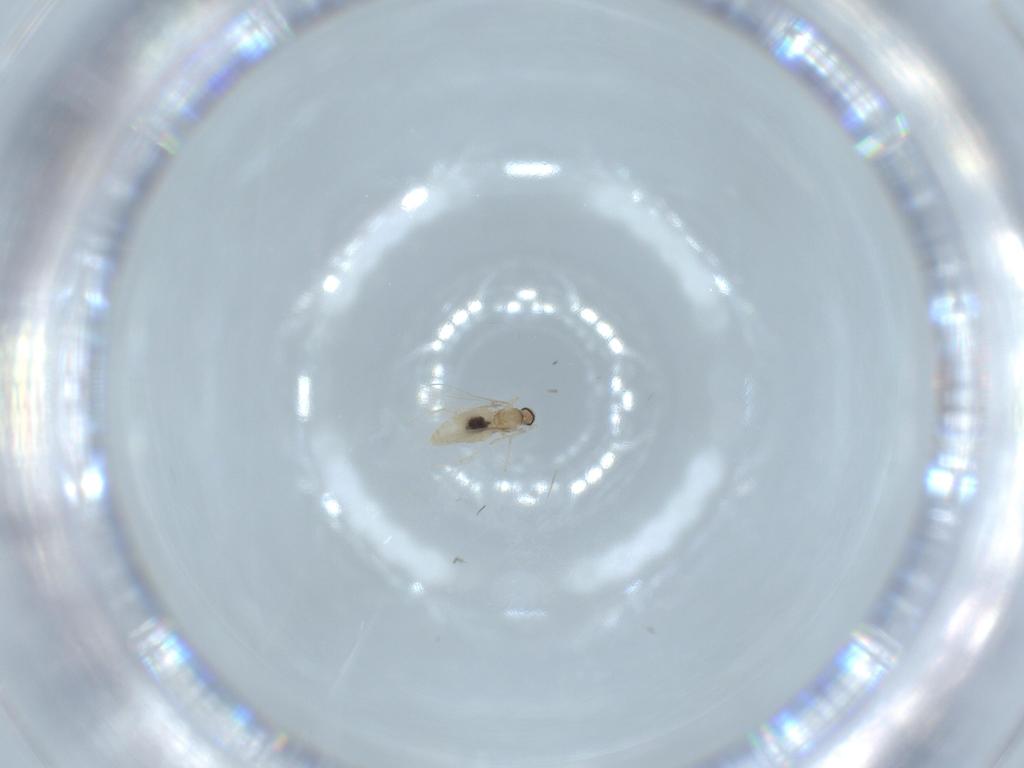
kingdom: Animalia
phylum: Arthropoda
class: Insecta
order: Diptera
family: Cecidomyiidae
